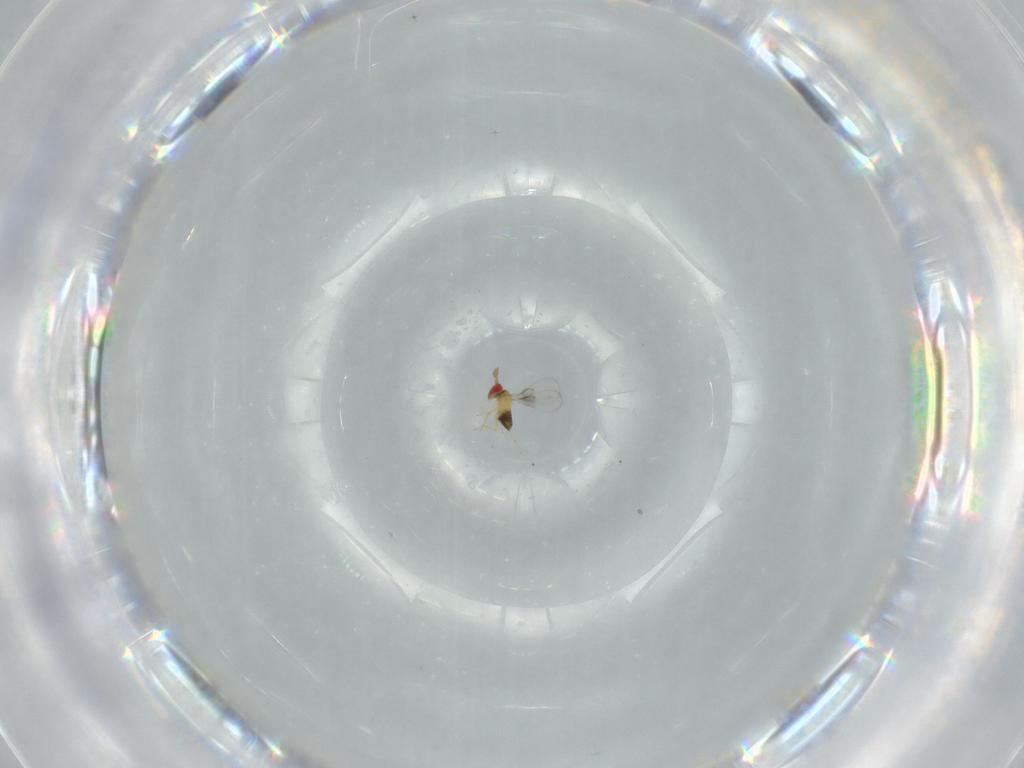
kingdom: Animalia
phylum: Arthropoda
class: Insecta
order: Hymenoptera
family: Trichogrammatidae
